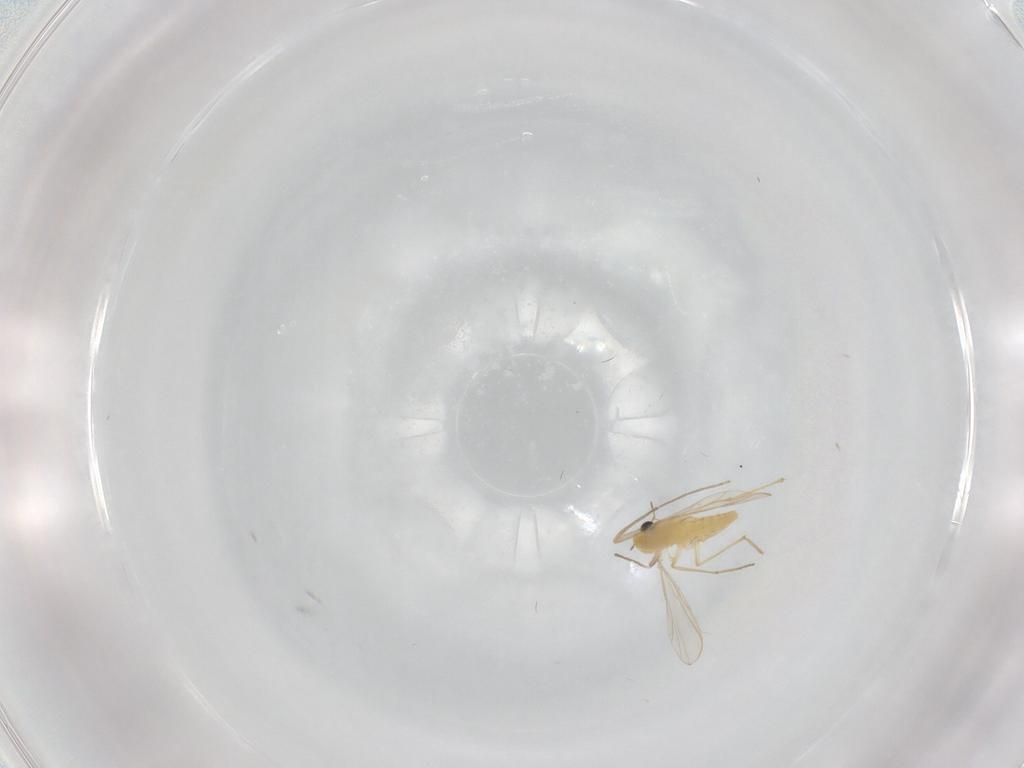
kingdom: Animalia
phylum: Arthropoda
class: Insecta
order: Diptera
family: Chironomidae
